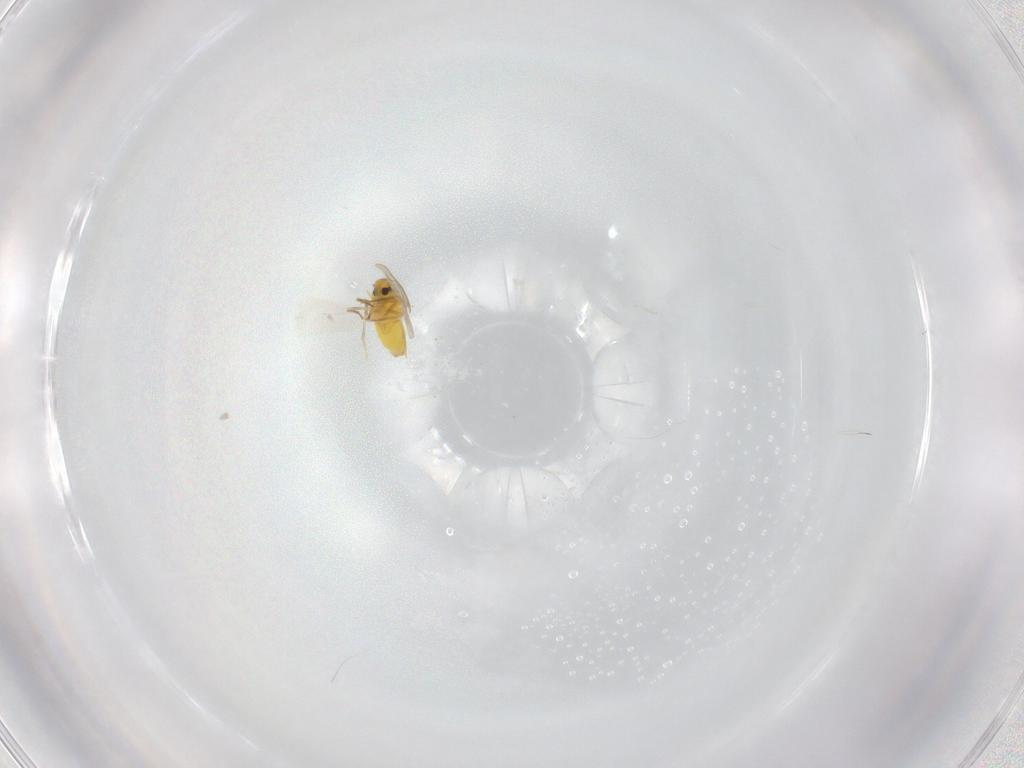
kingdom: Animalia
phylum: Arthropoda
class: Insecta
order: Hemiptera
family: Aleyrodidae
